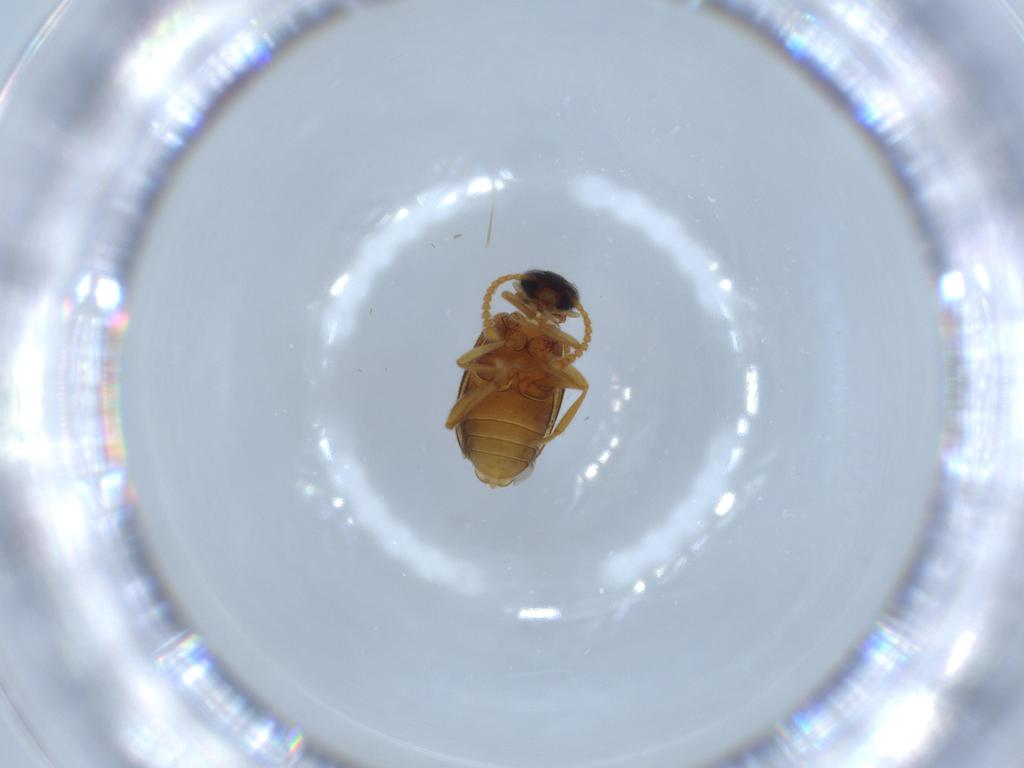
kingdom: Animalia
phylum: Arthropoda
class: Insecta
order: Coleoptera
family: Aderidae
